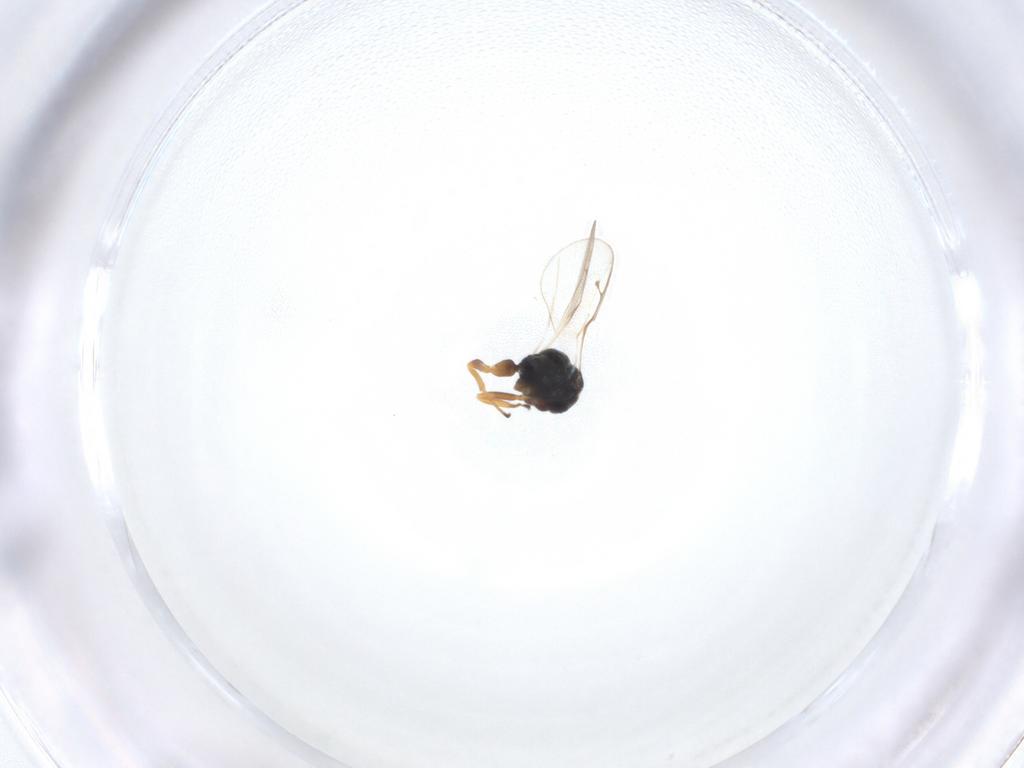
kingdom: Animalia
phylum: Arthropoda
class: Insecta
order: Hymenoptera
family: Pteromalidae
